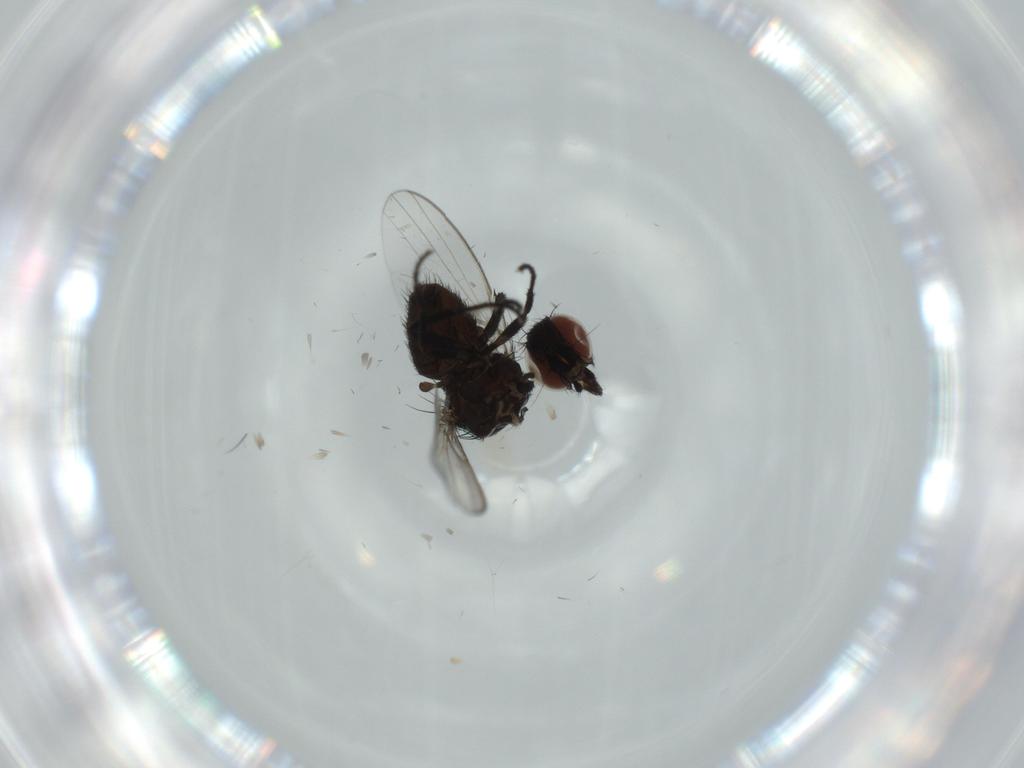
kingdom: Animalia
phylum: Arthropoda
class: Insecta
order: Diptera
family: Milichiidae
